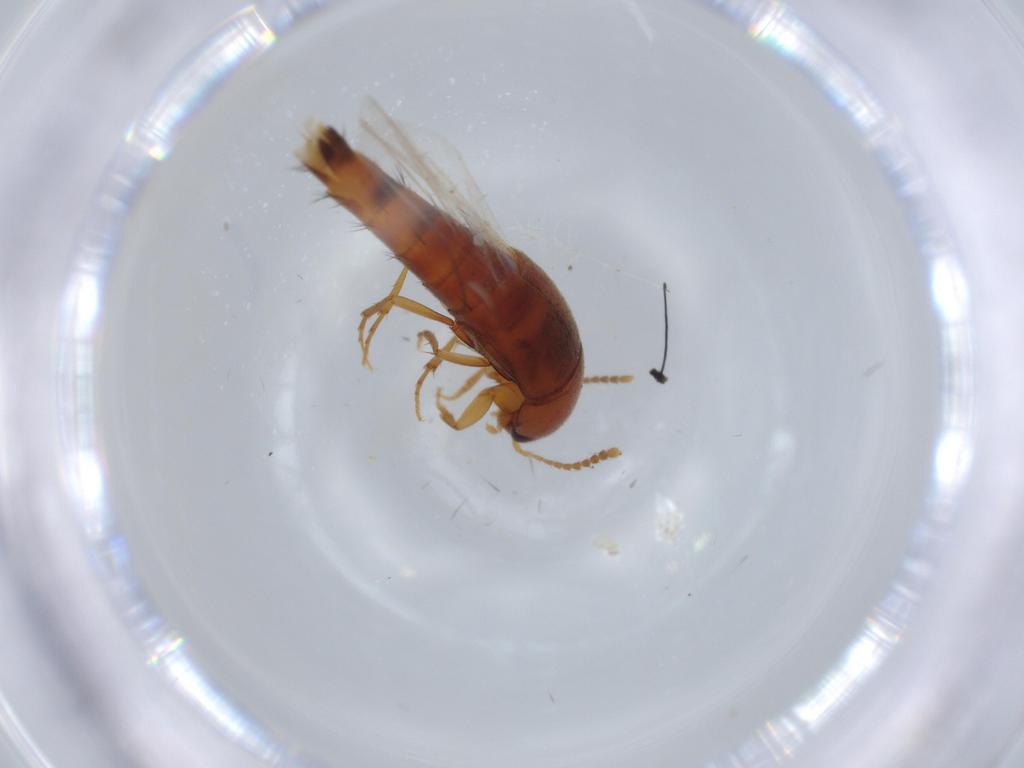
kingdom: Animalia
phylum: Arthropoda
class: Insecta
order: Coleoptera
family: Staphylinidae
